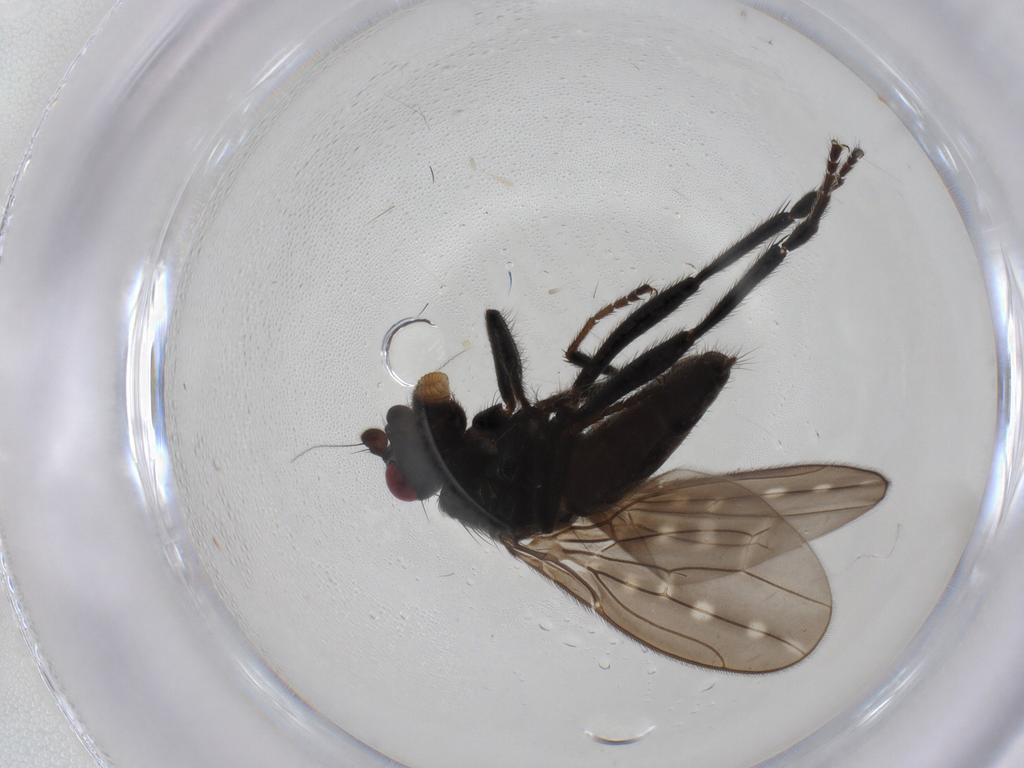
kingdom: Animalia
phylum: Arthropoda
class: Insecta
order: Diptera
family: Sphaeroceridae
